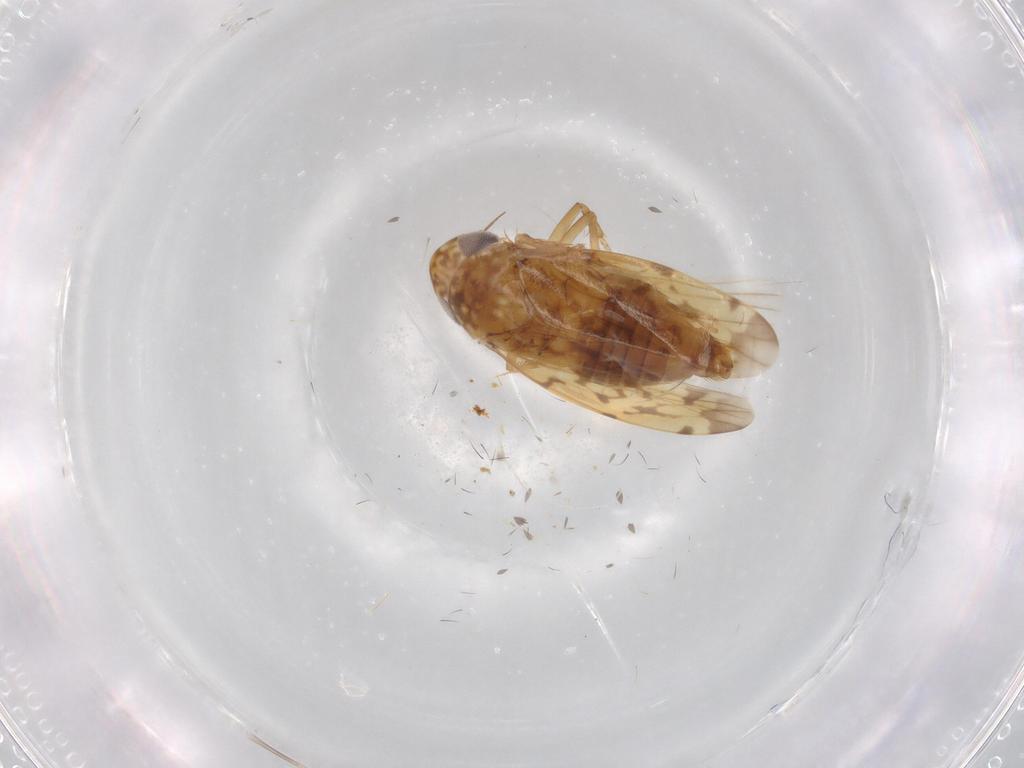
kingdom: Animalia
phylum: Arthropoda
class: Insecta
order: Hemiptera
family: Cicadellidae
